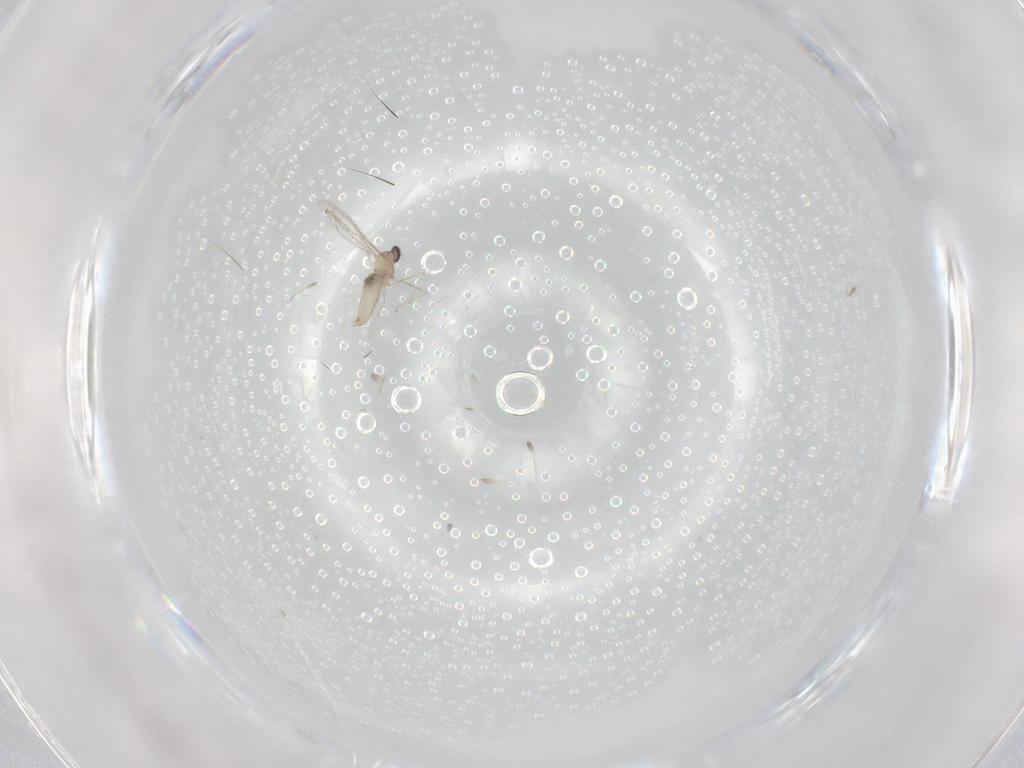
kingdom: Animalia
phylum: Arthropoda
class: Insecta
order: Diptera
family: Cecidomyiidae
